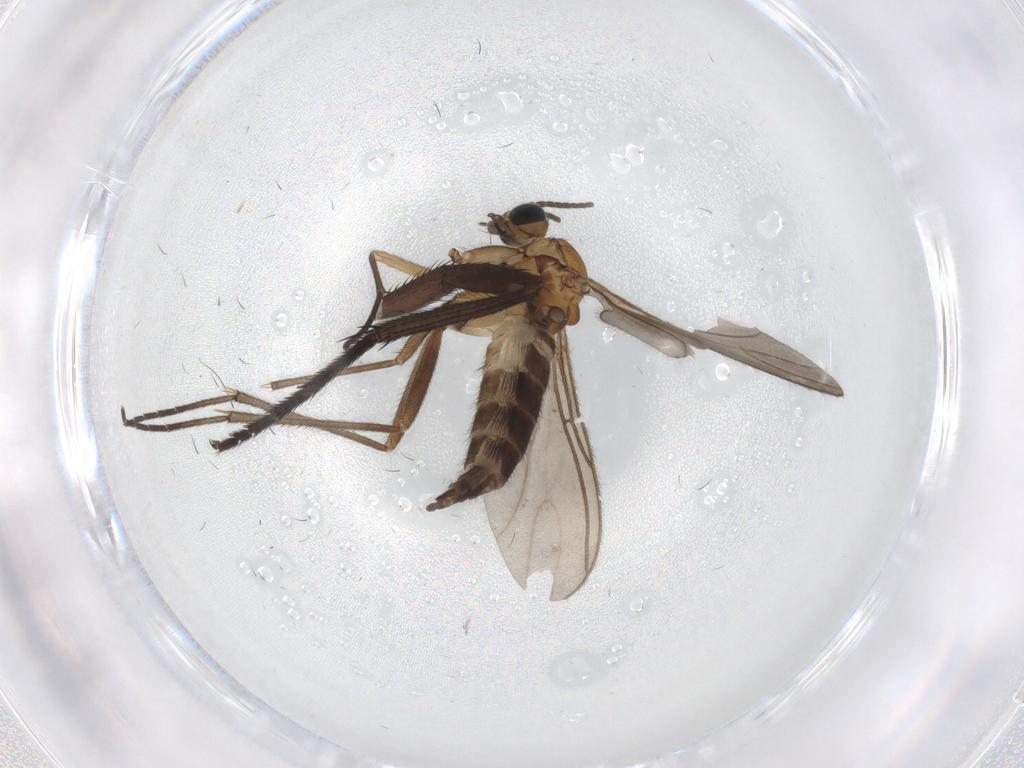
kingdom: Animalia
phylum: Arthropoda
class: Insecta
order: Diptera
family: Muscidae
